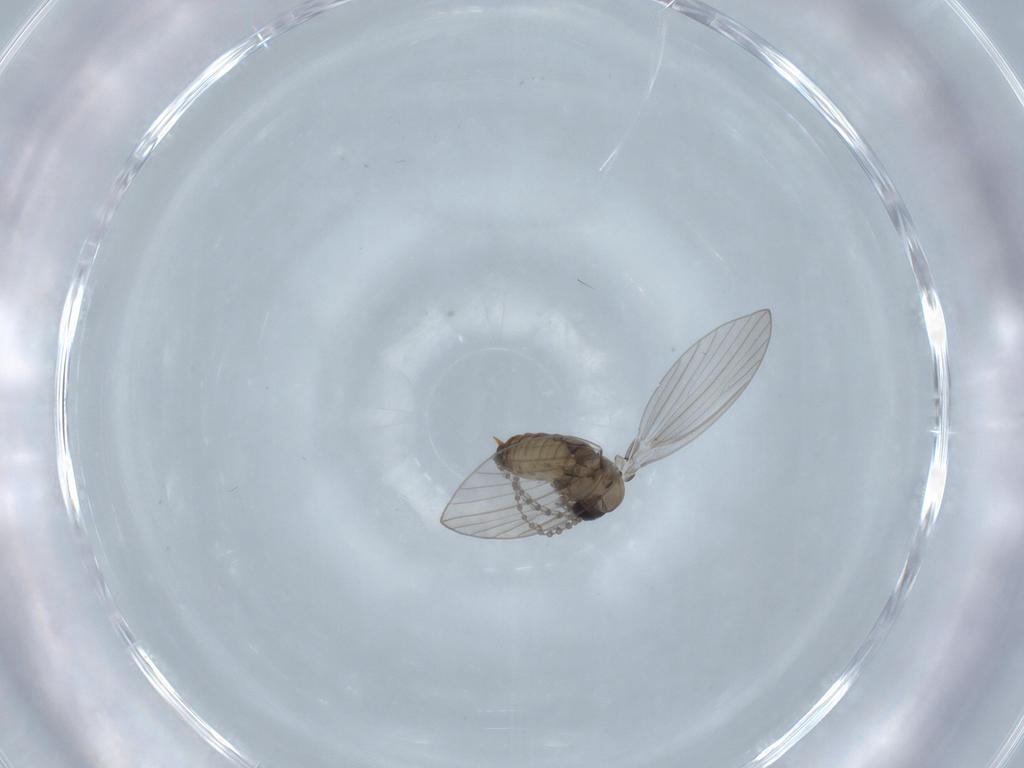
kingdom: Animalia
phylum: Arthropoda
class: Insecta
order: Diptera
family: Psychodidae
